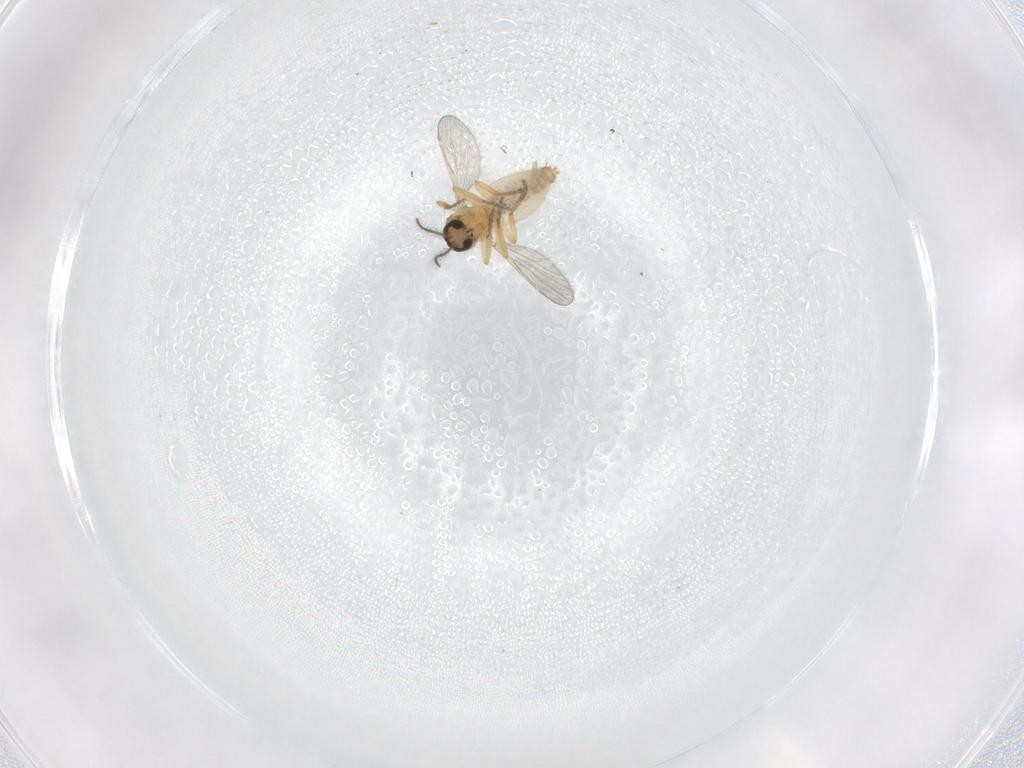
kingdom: Animalia
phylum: Arthropoda
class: Insecta
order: Diptera
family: Ceratopogonidae
